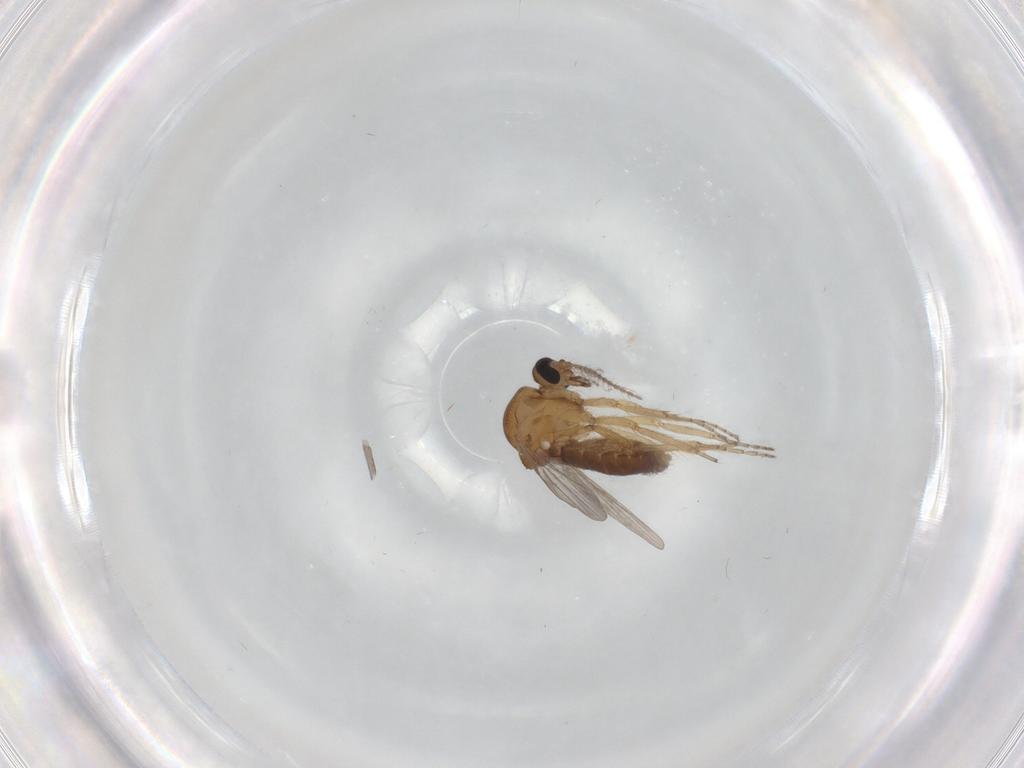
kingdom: Animalia
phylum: Arthropoda
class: Insecta
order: Diptera
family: Ceratopogonidae
